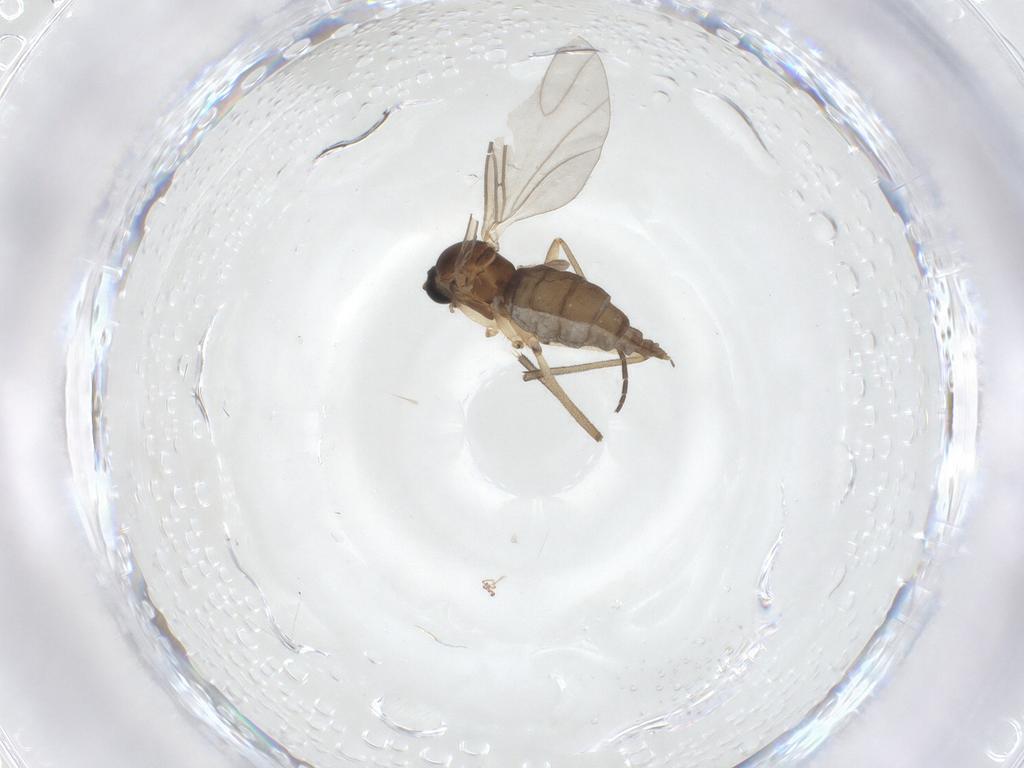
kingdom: Animalia
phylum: Arthropoda
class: Insecta
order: Diptera
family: Sciaridae
